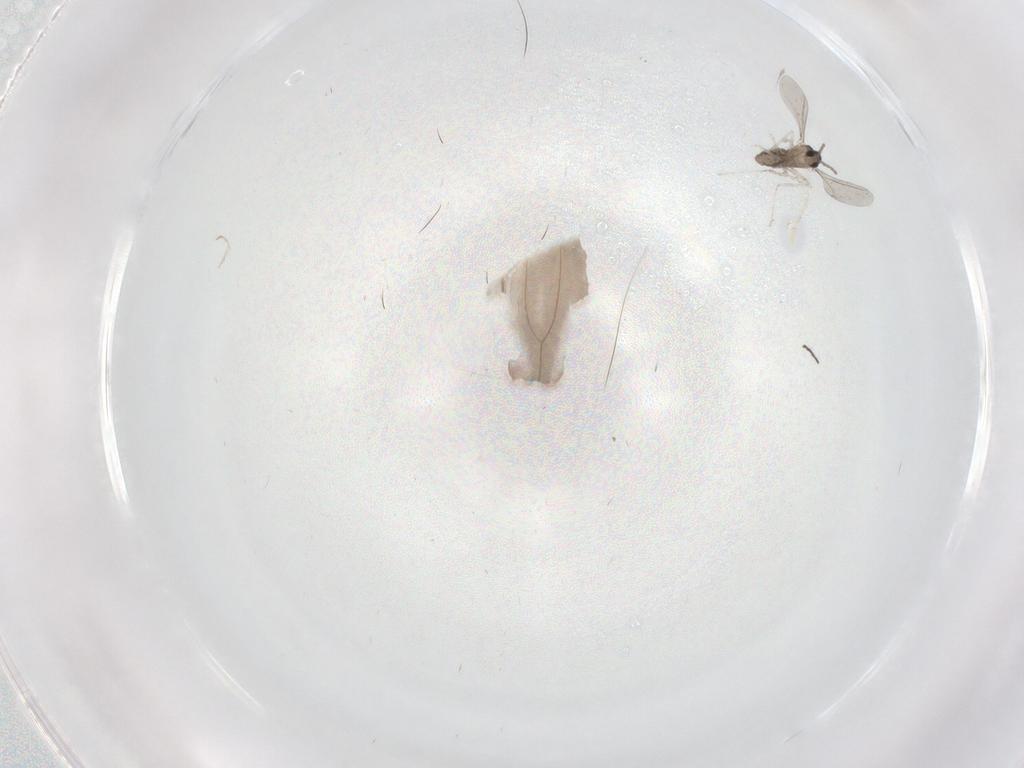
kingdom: Animalia
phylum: Arthropoda
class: Insecta
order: Diptera
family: Cecidomyiidae
